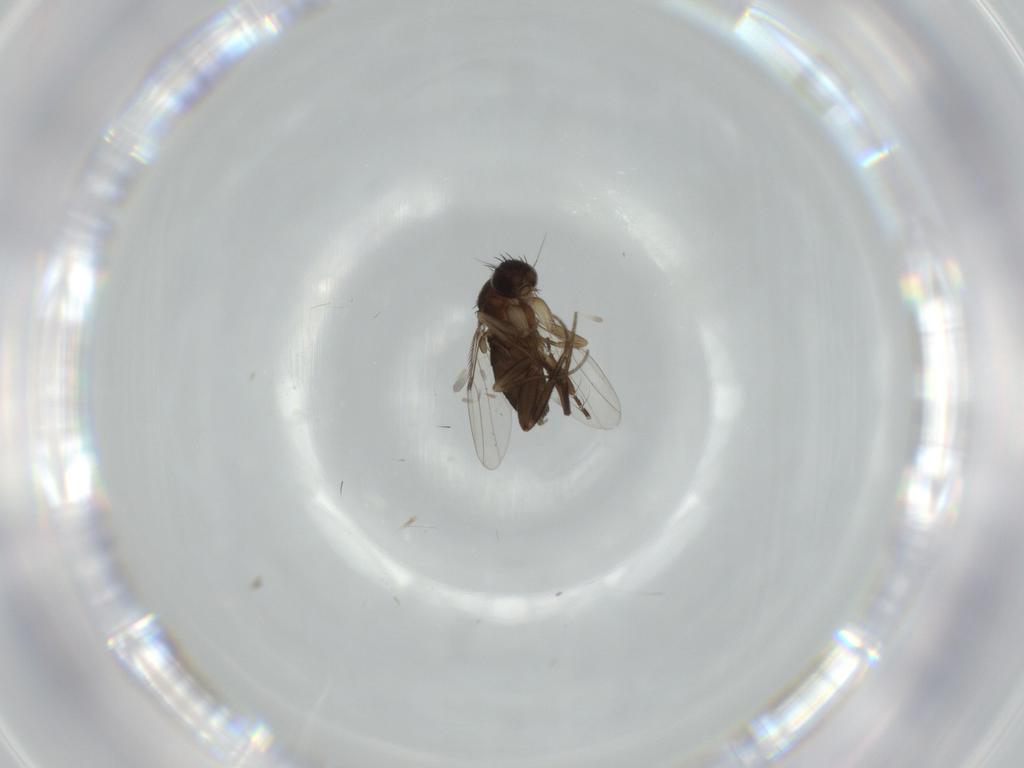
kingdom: Animalia
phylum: Arthropoda
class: Insecta
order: Diptera
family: Culicidae
